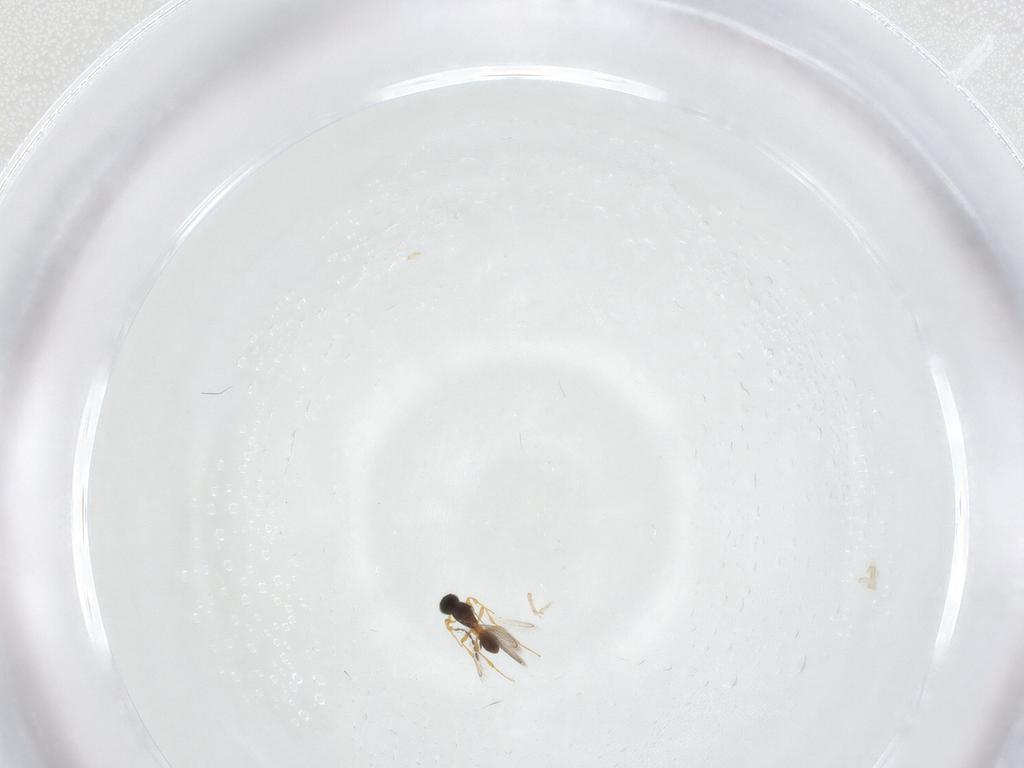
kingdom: Animalia
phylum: Arthropoda
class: Insecta
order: Hymenoptera
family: Platygastridae
